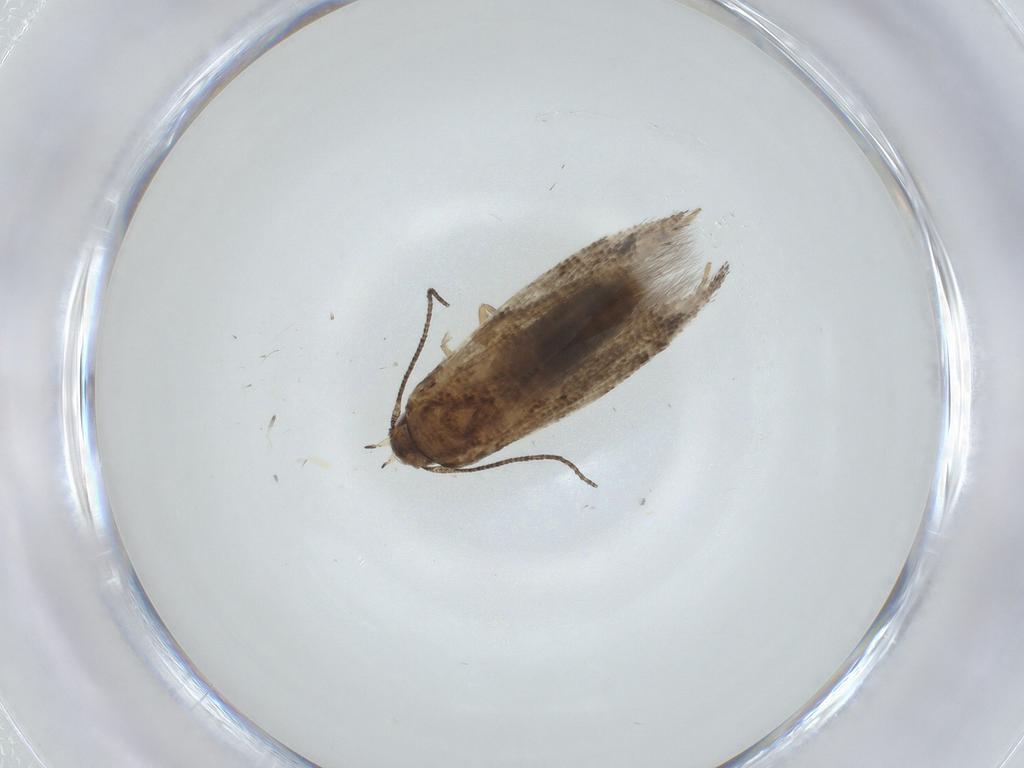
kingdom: Animalia
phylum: Arthropoda
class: Insecta
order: Lepidoptera
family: Elachistidae
